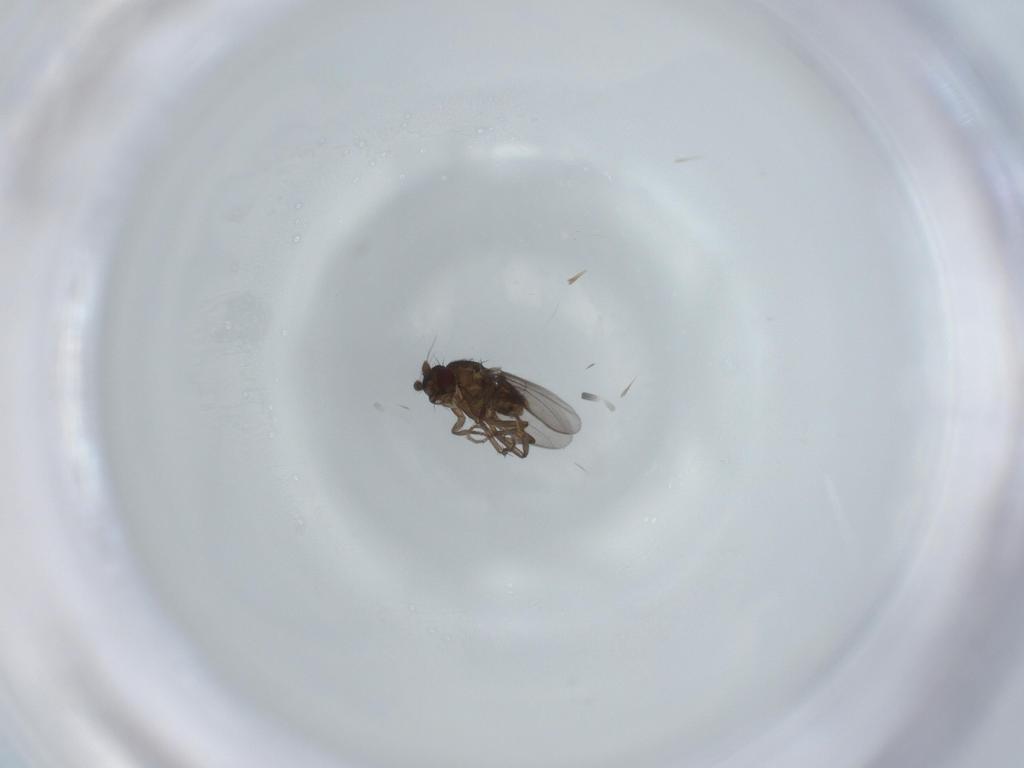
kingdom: Animalia
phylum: Arthropoda
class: Insecta
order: Diptera
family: Sphaeroceridae
